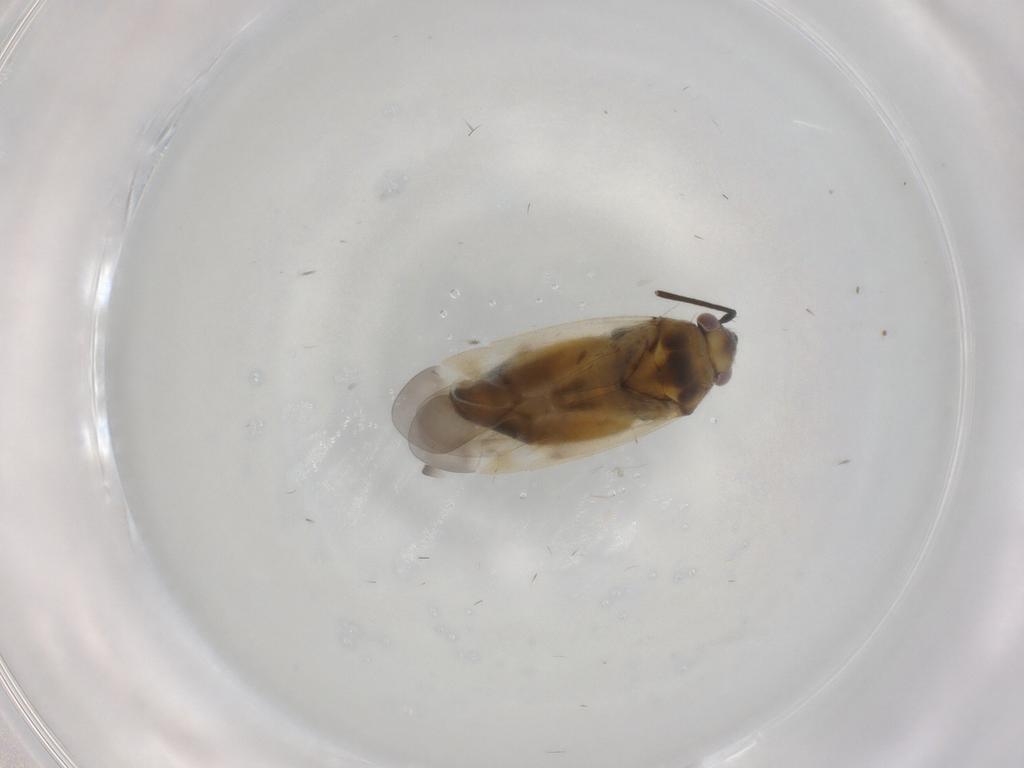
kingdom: Animalia
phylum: Arthropoda
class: Insecta
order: Hemiptera
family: Miridae
